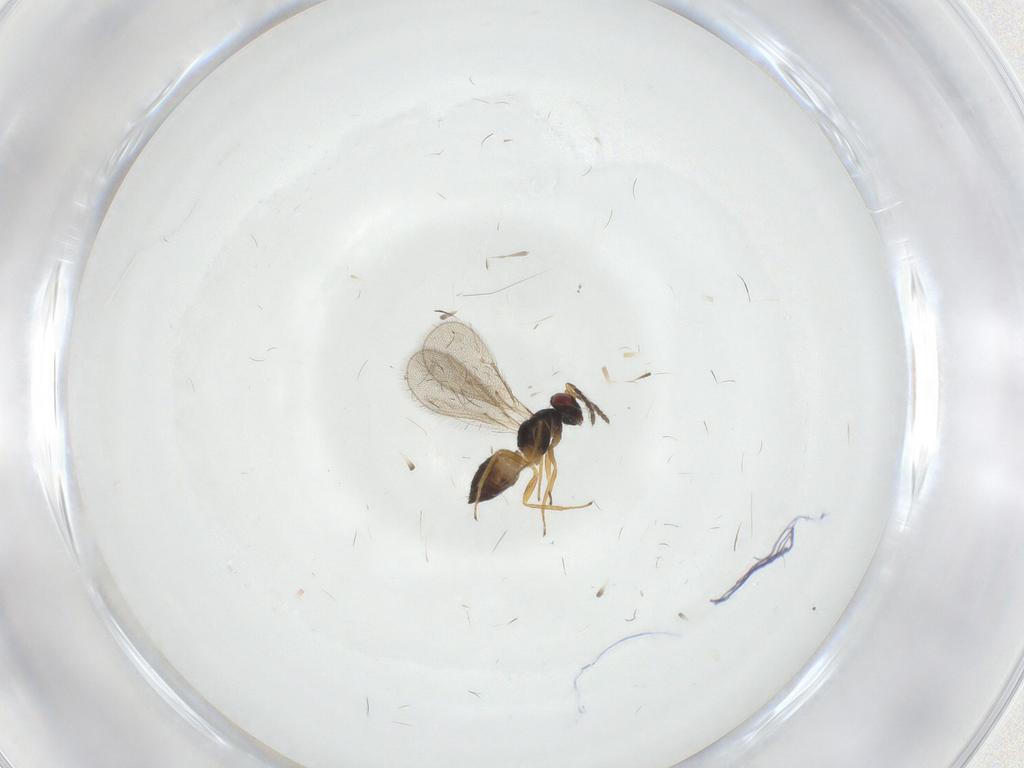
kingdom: Animalia
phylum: Arthropoda
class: Insecta
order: Hymenoptera
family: Eulophidae
